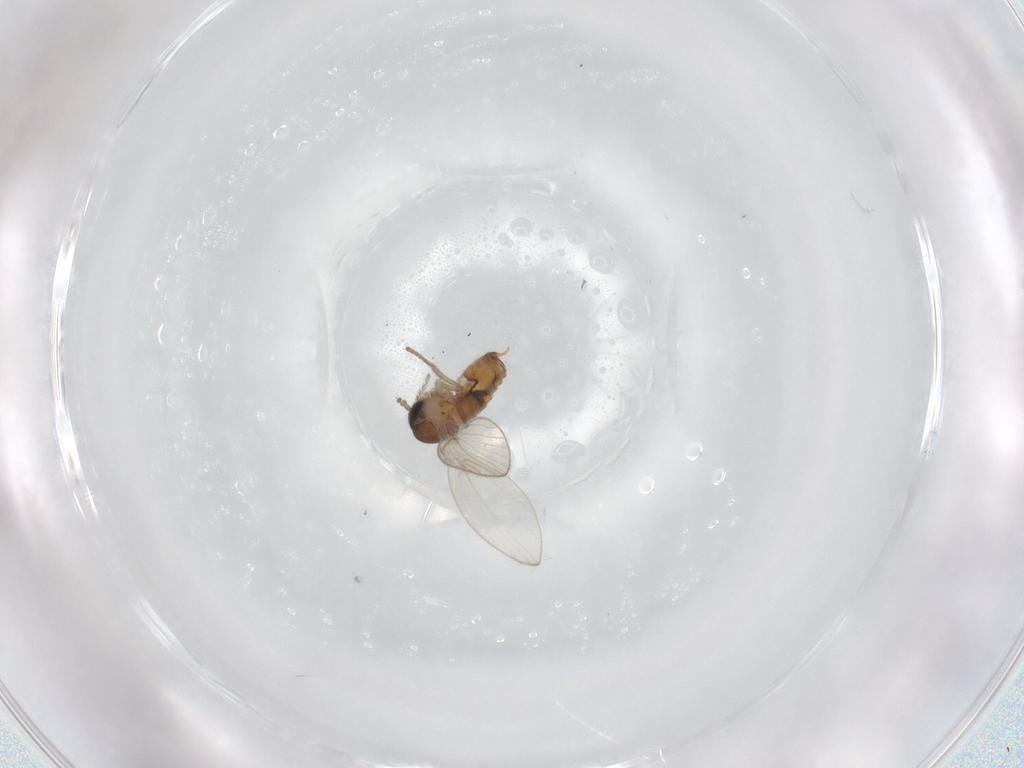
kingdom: Animalia
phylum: Arthropoda
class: Insecta
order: Diptera
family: Psychodidae
